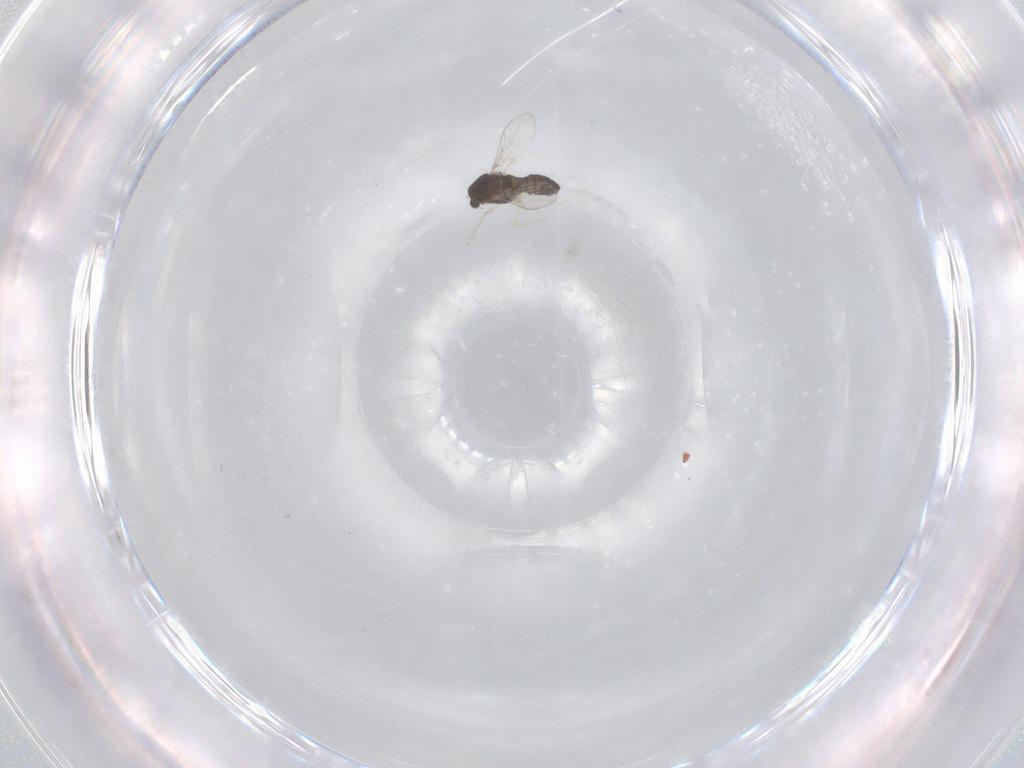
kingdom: Animalia
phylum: Arthropoda
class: Insecta
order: Diptera
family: Chironomidae
